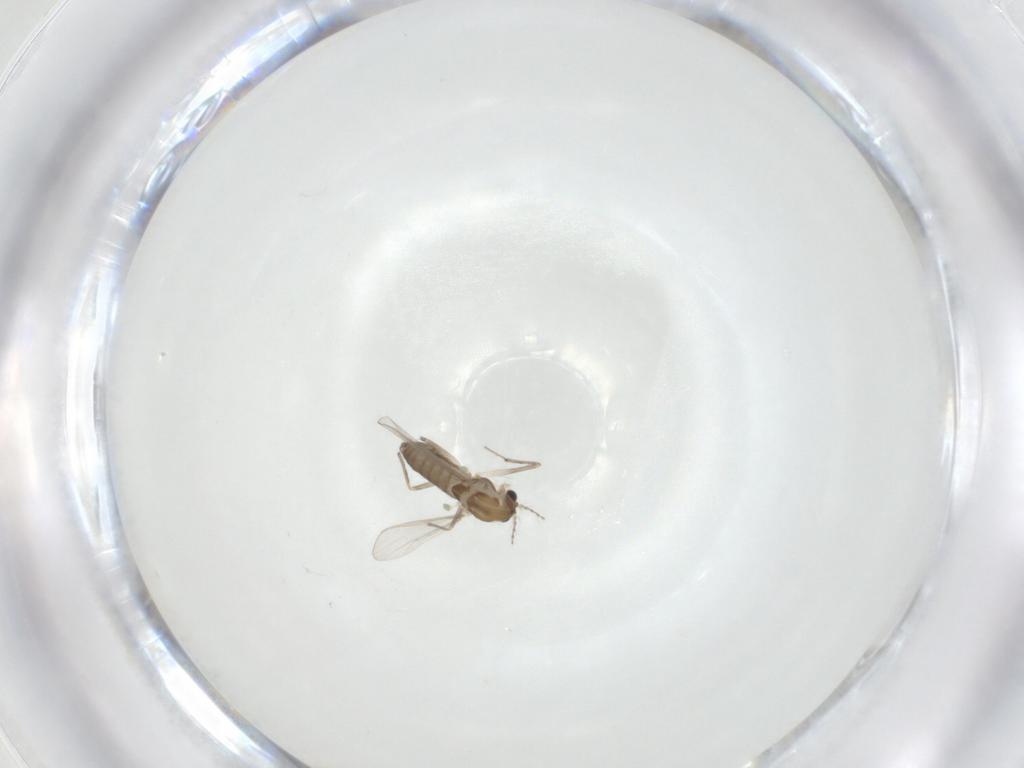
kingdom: Animalia
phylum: Arthropoda
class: Insecta
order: Diptera
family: Chironomidae
